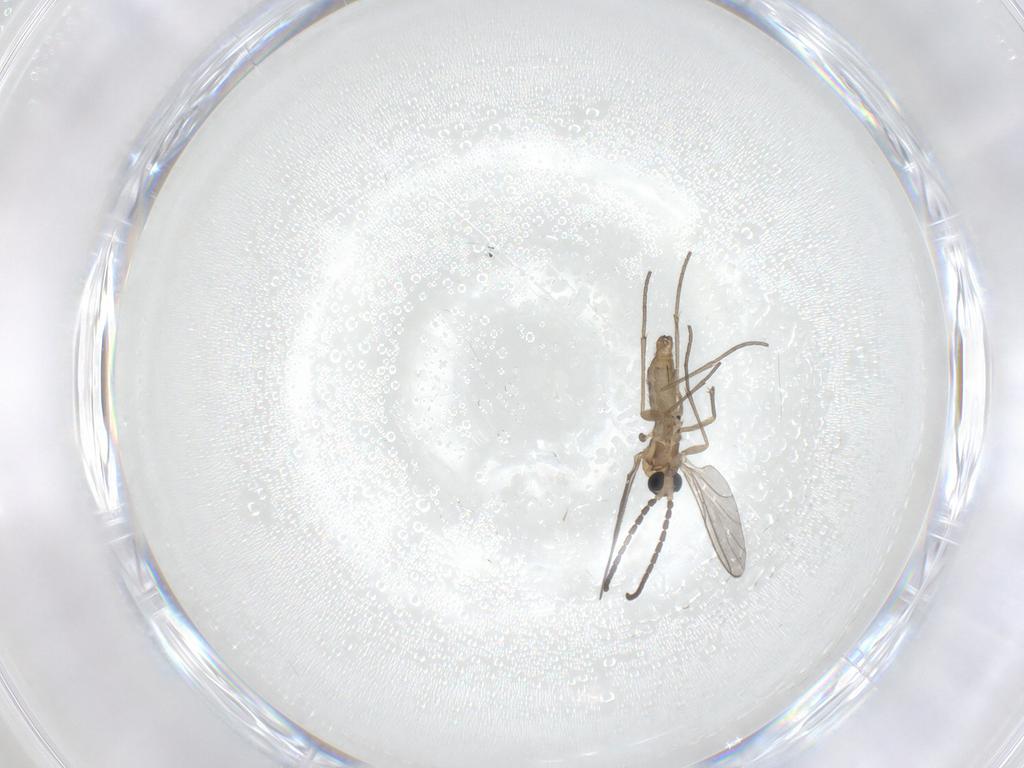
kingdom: Animalia
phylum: Arthropoda
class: Insecta
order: Diptera
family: Sciaridae
